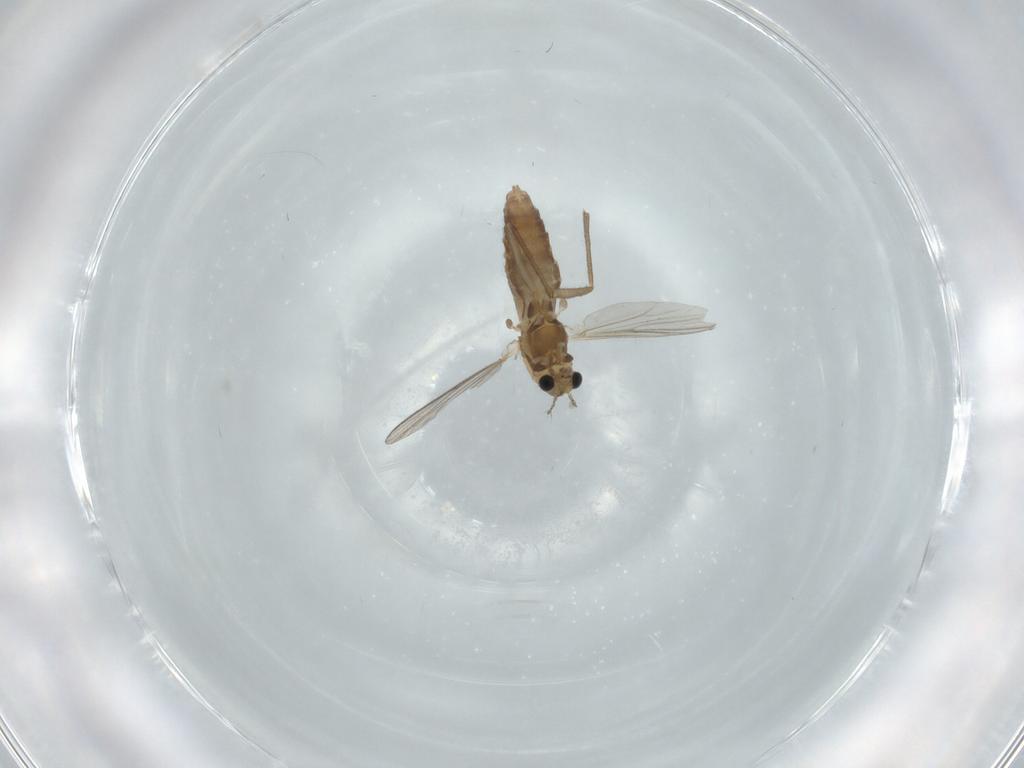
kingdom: Animalia
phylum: Arthropoda
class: Insecta
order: Diptera
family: Chironomidae
